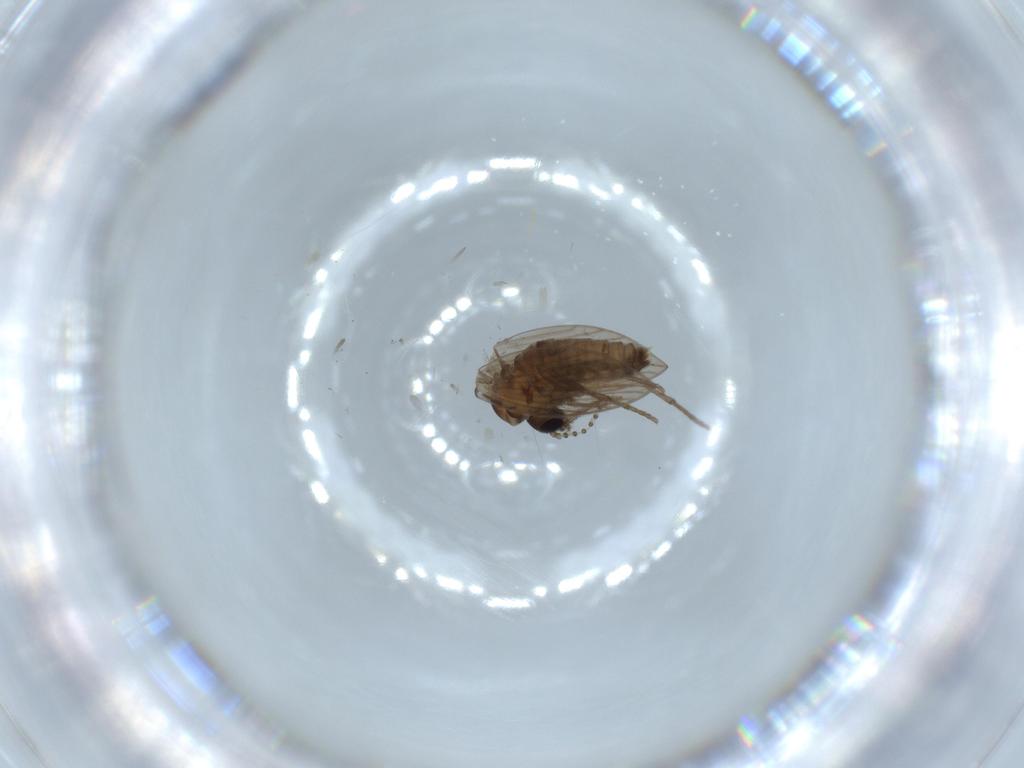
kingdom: Animalia
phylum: Arthropoda
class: Insecta
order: Diptera
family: Psychodidae
